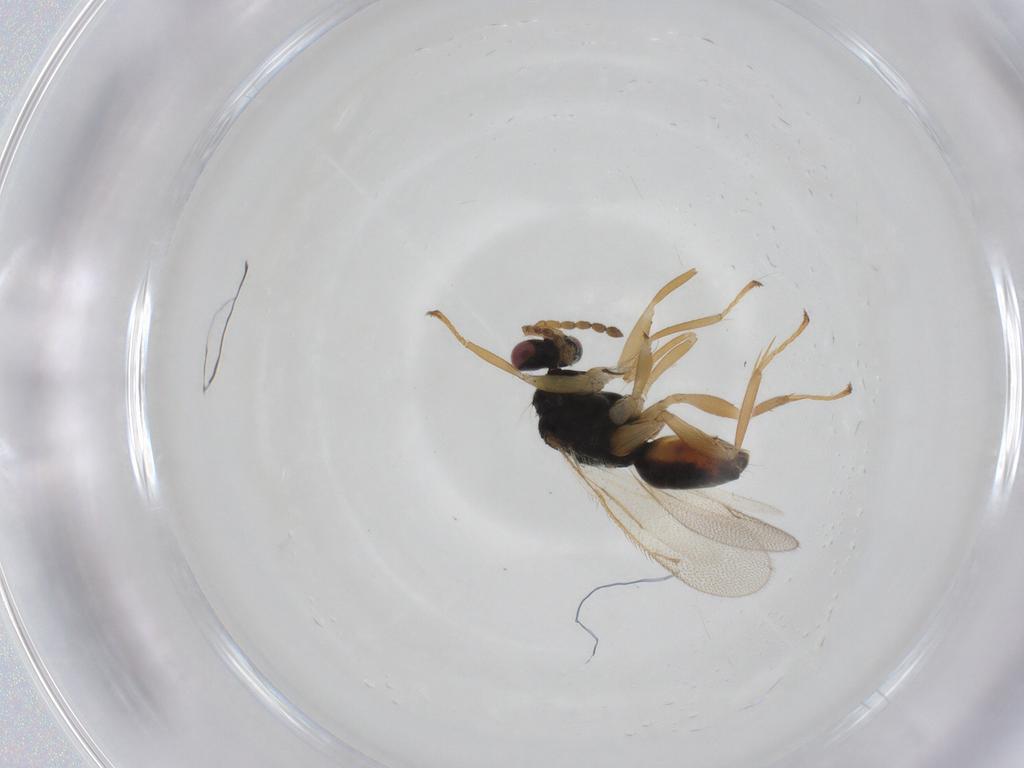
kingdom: Animalia
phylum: Arthropoda
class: Insecta
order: Hymenoptera
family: Eulophidae
